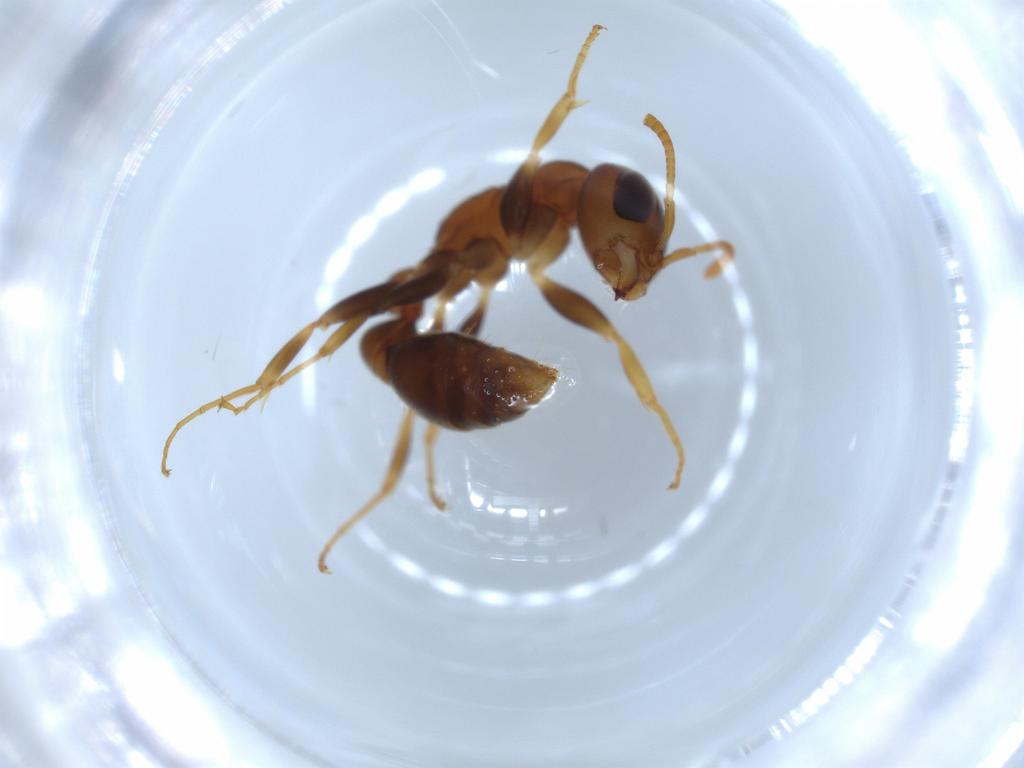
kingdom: Animalia
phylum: Arthropoda
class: Insecta
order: Hymenoptera
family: Formicidae
